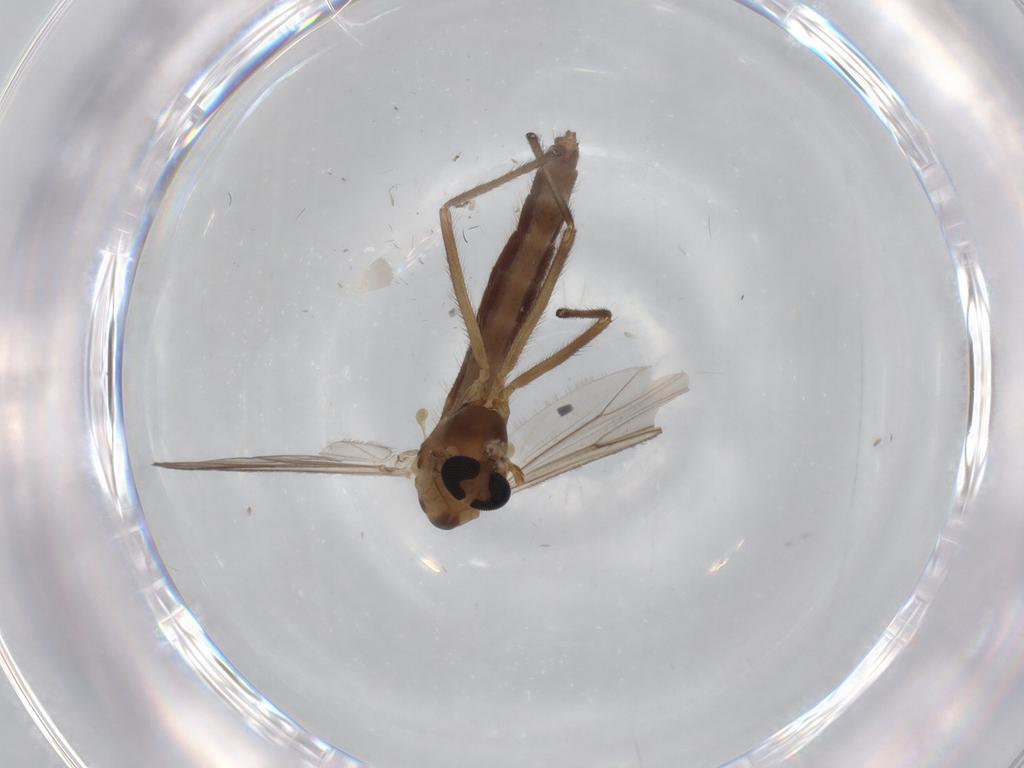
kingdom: Animalia
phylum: Arthropoda
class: Insecta
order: Diptera
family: Chironomidae
